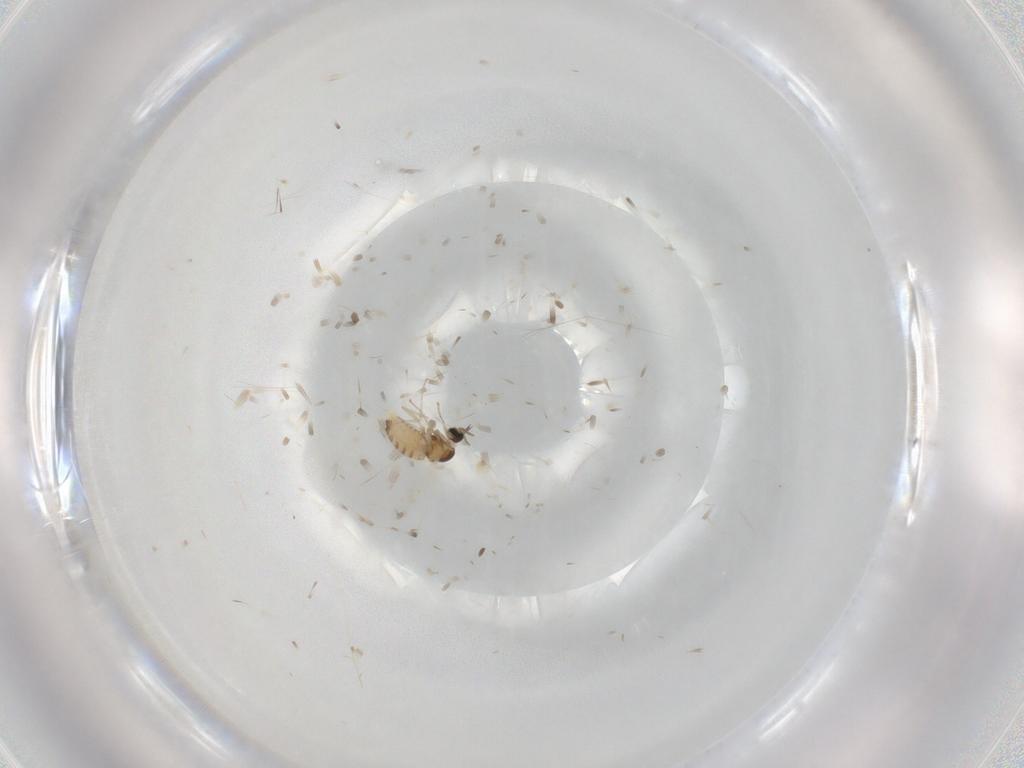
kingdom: Animalia
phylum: Arthropoda
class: Insecta
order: Diptera
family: Cecidomyiidae
